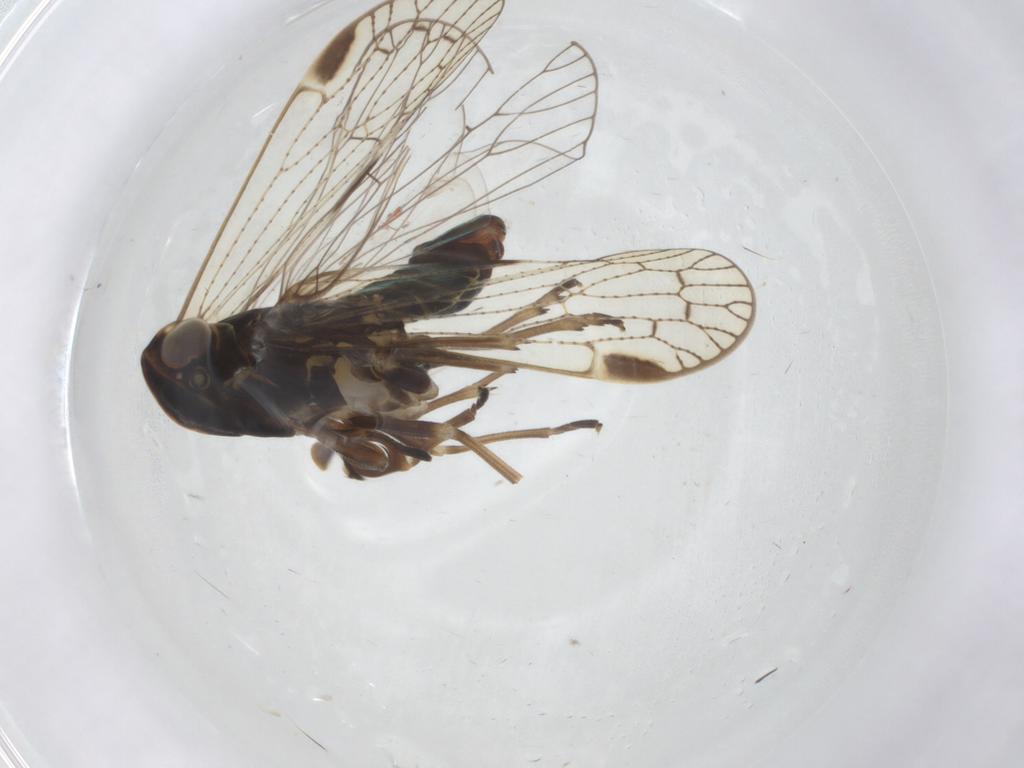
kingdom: Animalia
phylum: Arthropoda
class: Insecta
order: Hemiptera
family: Cixiidae
